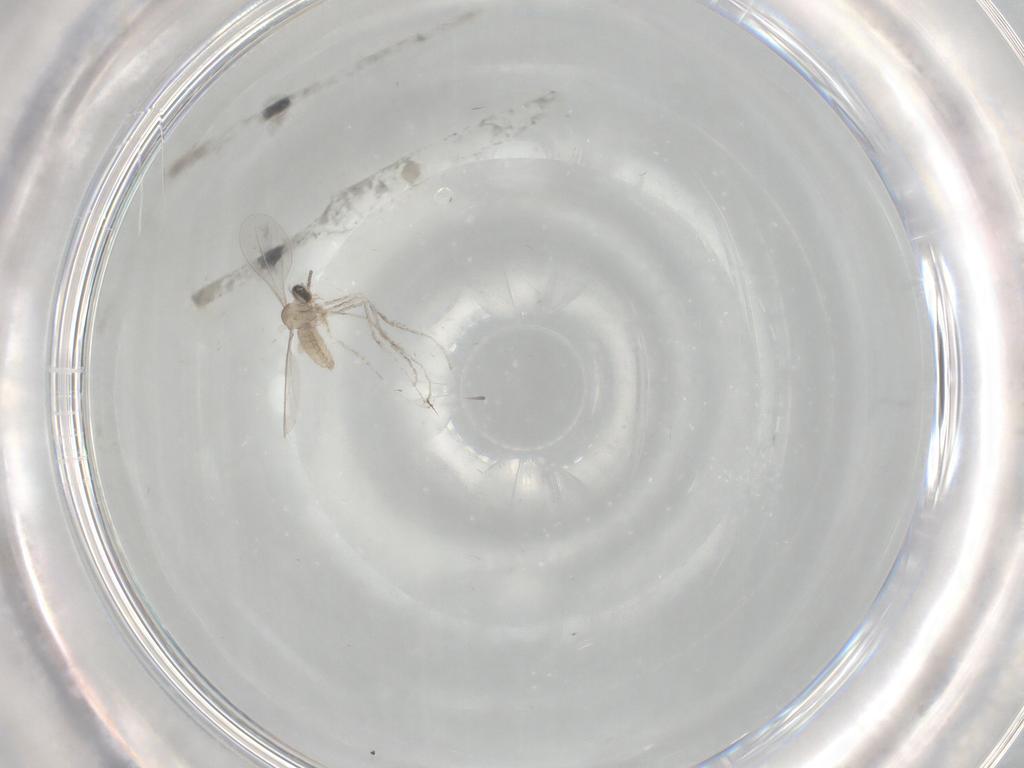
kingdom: Animalia
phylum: Arthropoda
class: Insecta
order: Diptera
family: Cecidomyiidae
